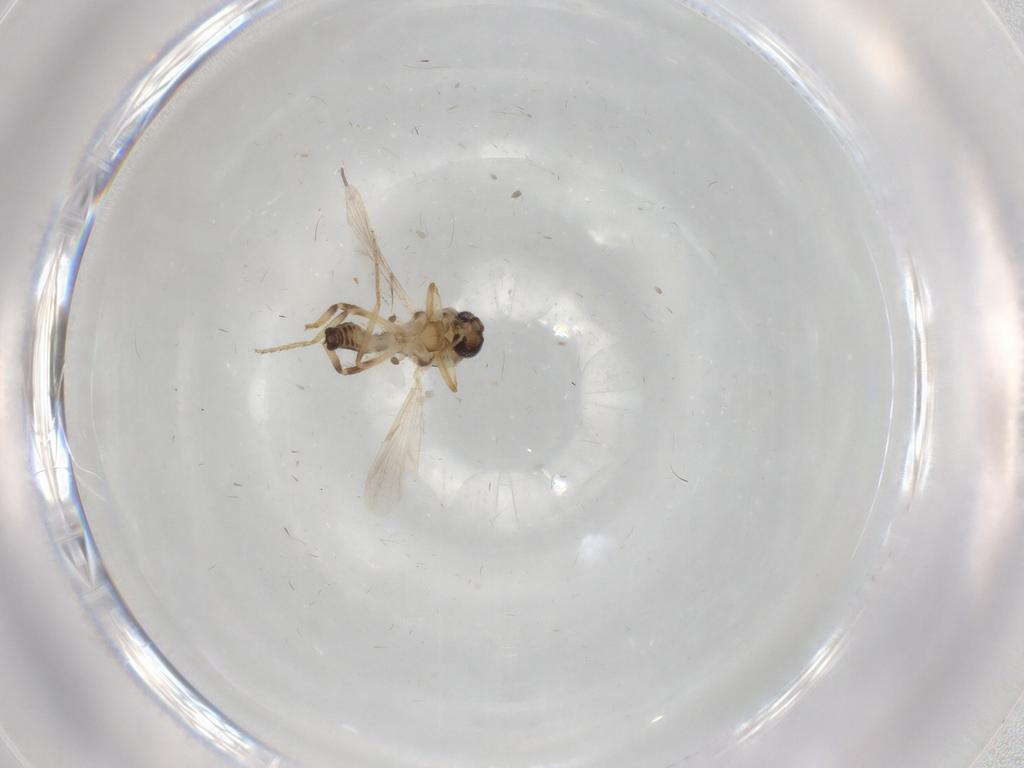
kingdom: Animalia
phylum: Arthropoda
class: Insecta
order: Diptera
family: Ceratopogonidae
